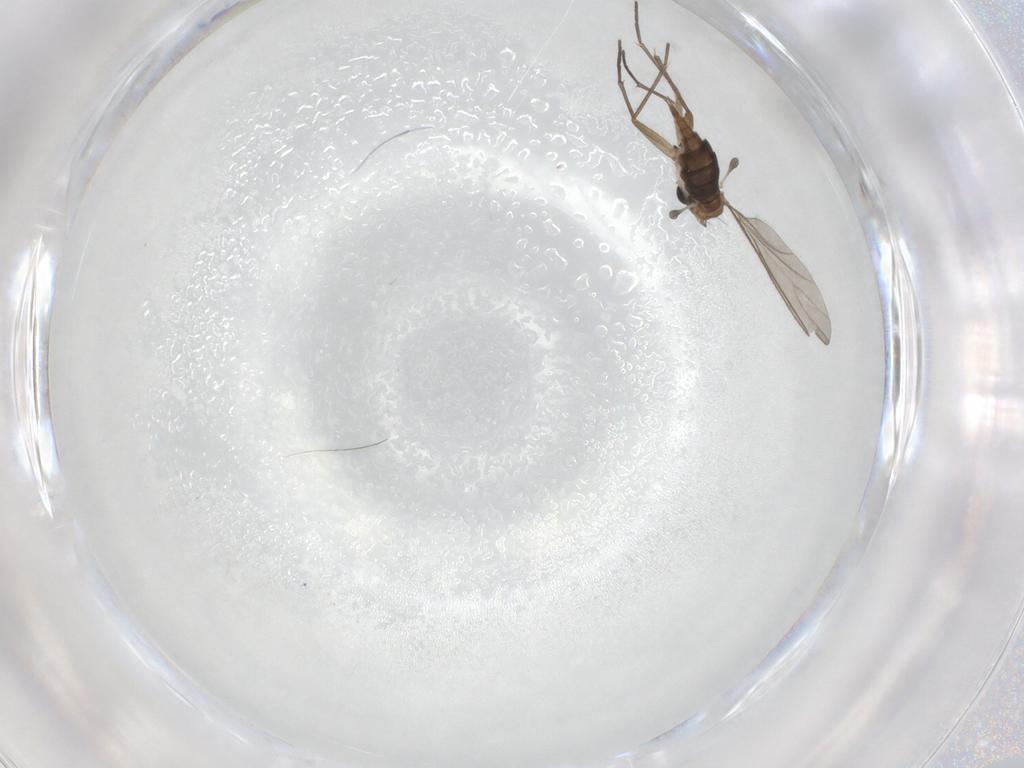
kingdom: Animalia
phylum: Arthropoda
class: Insecta
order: Diptera
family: Sciaridae
